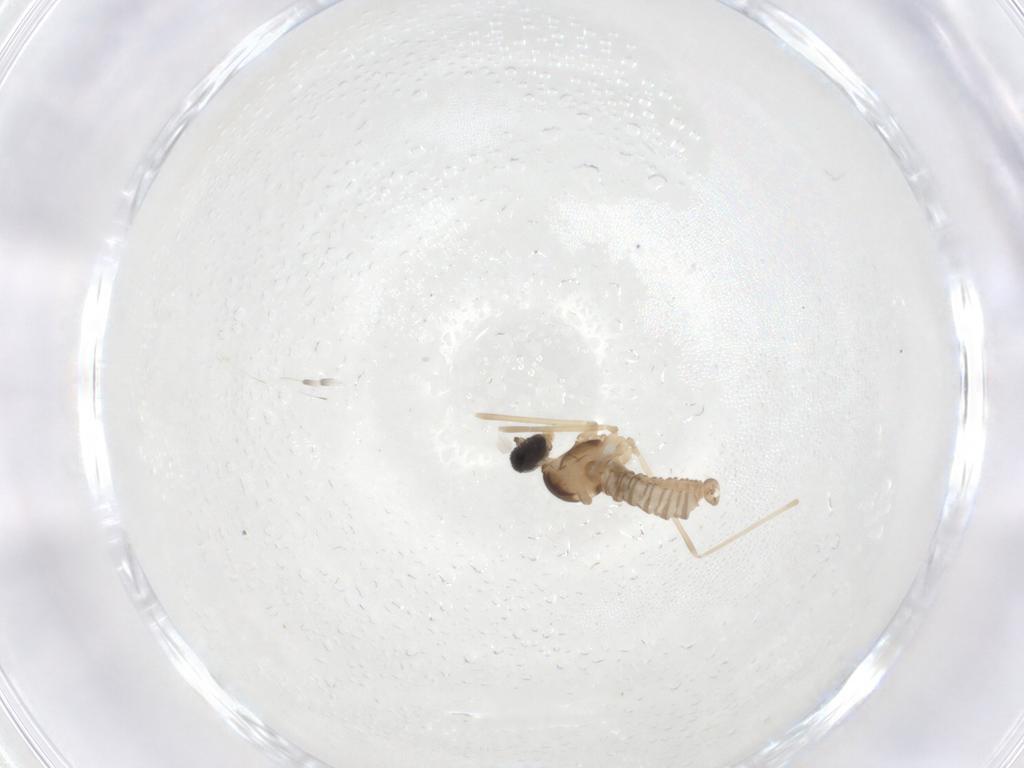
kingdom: Animalia
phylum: Arthropoda
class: Insecta
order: Diptera
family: Cecidomyiidae
